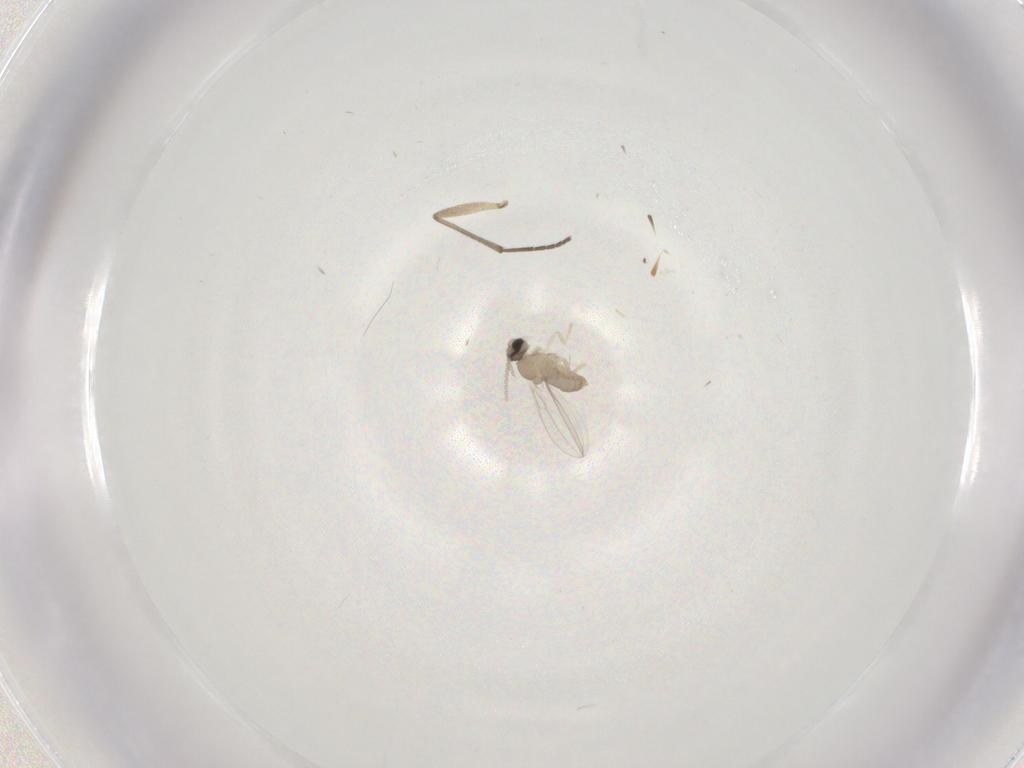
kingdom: Animalia
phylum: Arthropoda
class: Insecta
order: Diptera
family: Cecidomyiidae
